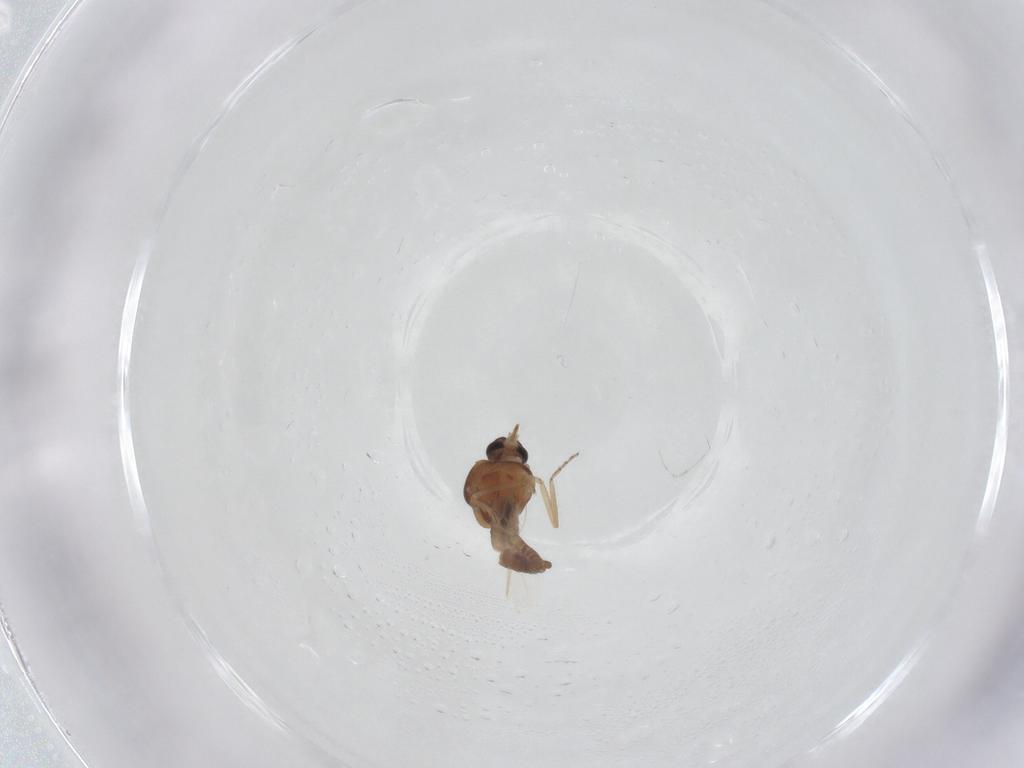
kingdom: Animalia
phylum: Arthropoda
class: Insecta
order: Diptera
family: Ceratopogonidae
